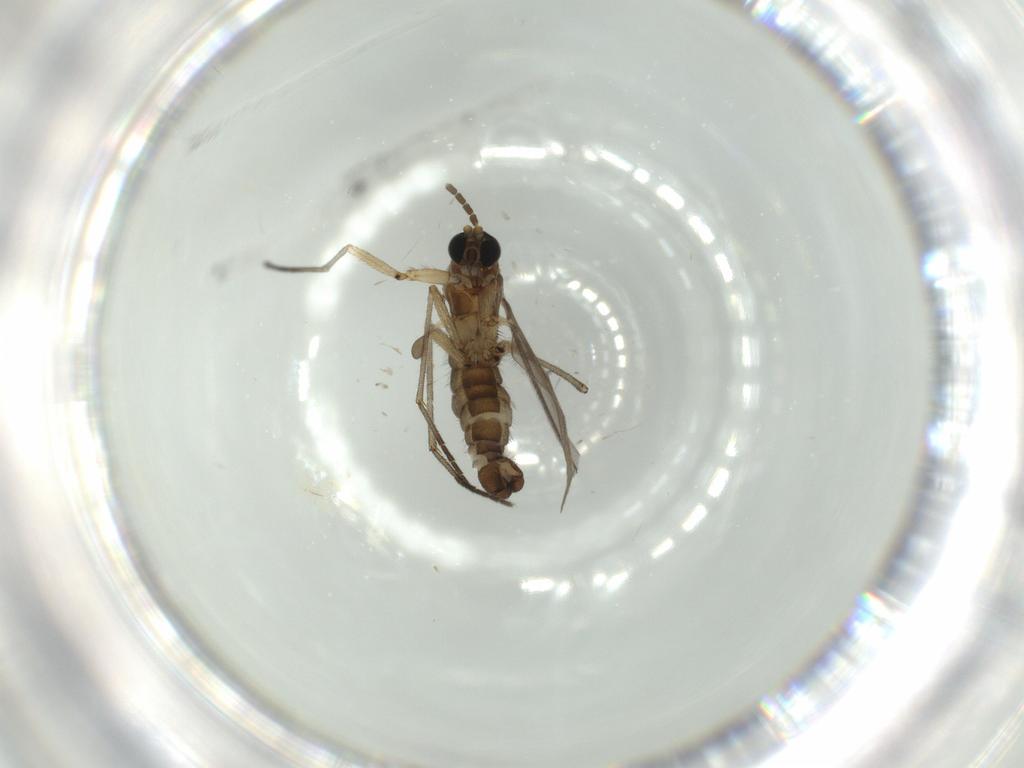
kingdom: Animalia
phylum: Arthropoda
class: Insecta
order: Diptera
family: Sciaridae
